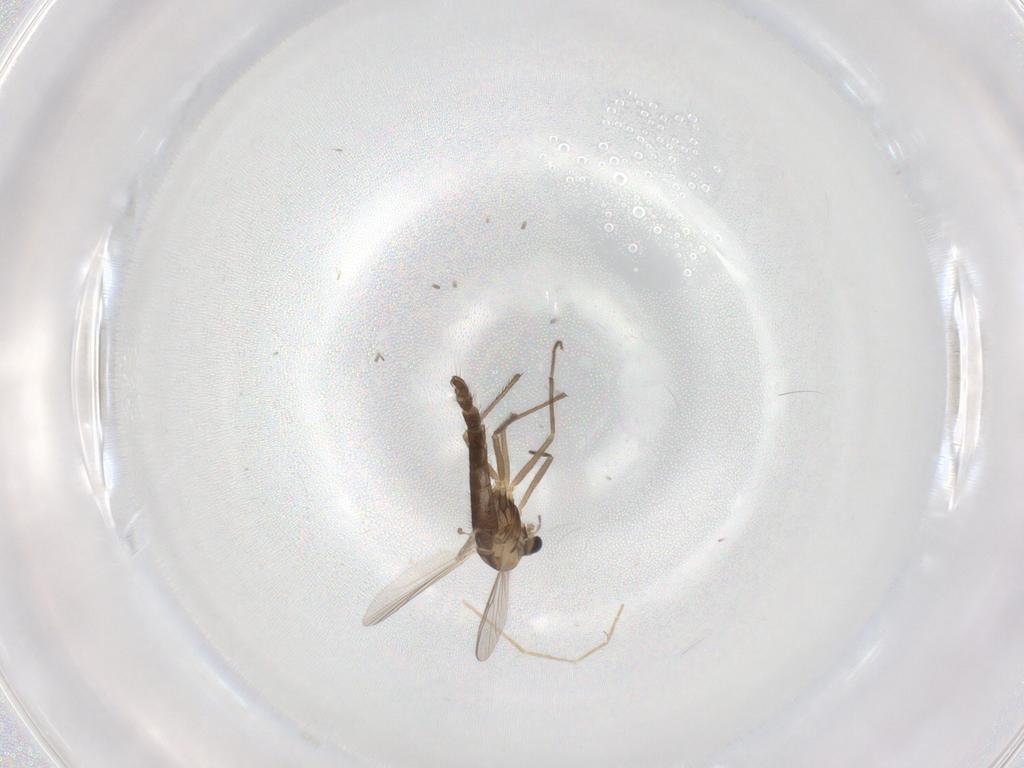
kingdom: Animalia
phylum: Arthropoda
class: Insecta
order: Diptera
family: Chironomidae
